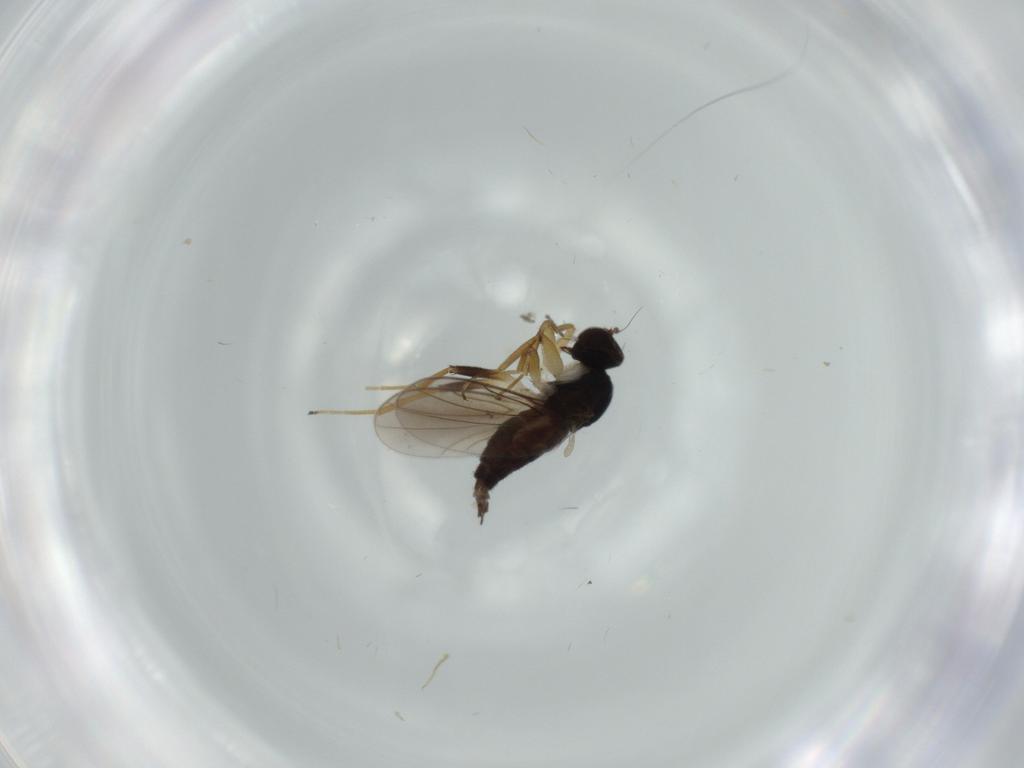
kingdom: Animalia
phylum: Arthropoda
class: Insecta
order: Diptera
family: Hybotidae
